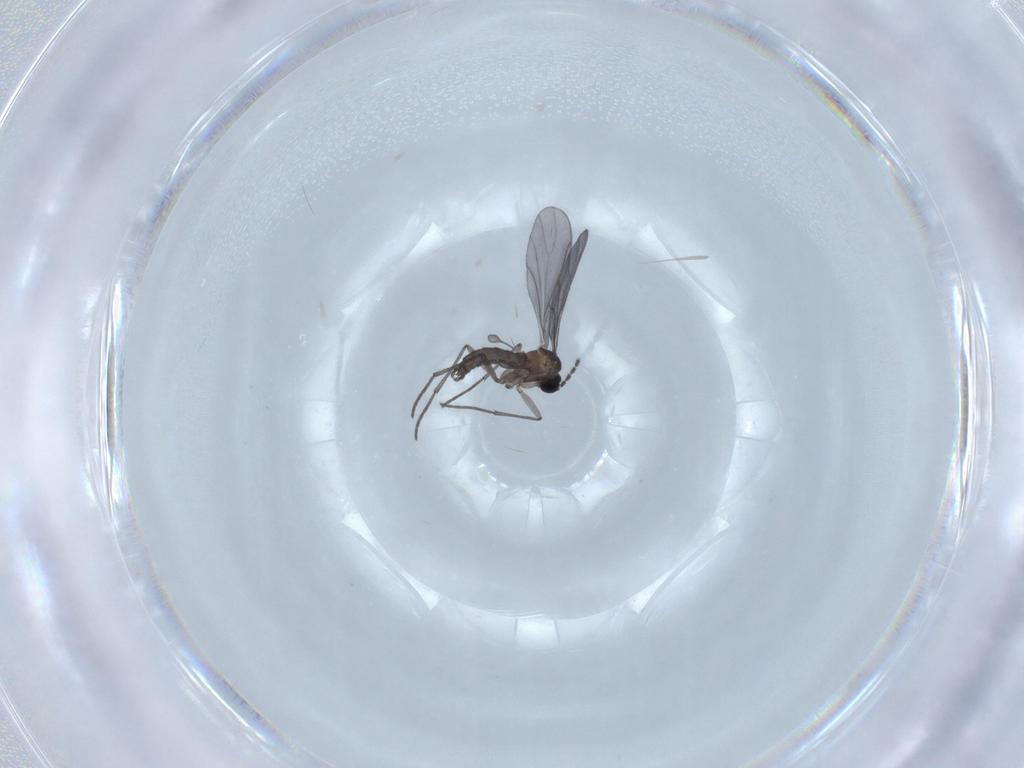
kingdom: Animalia
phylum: Arthropoda
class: Insecta
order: Diptera
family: Sciaridae
